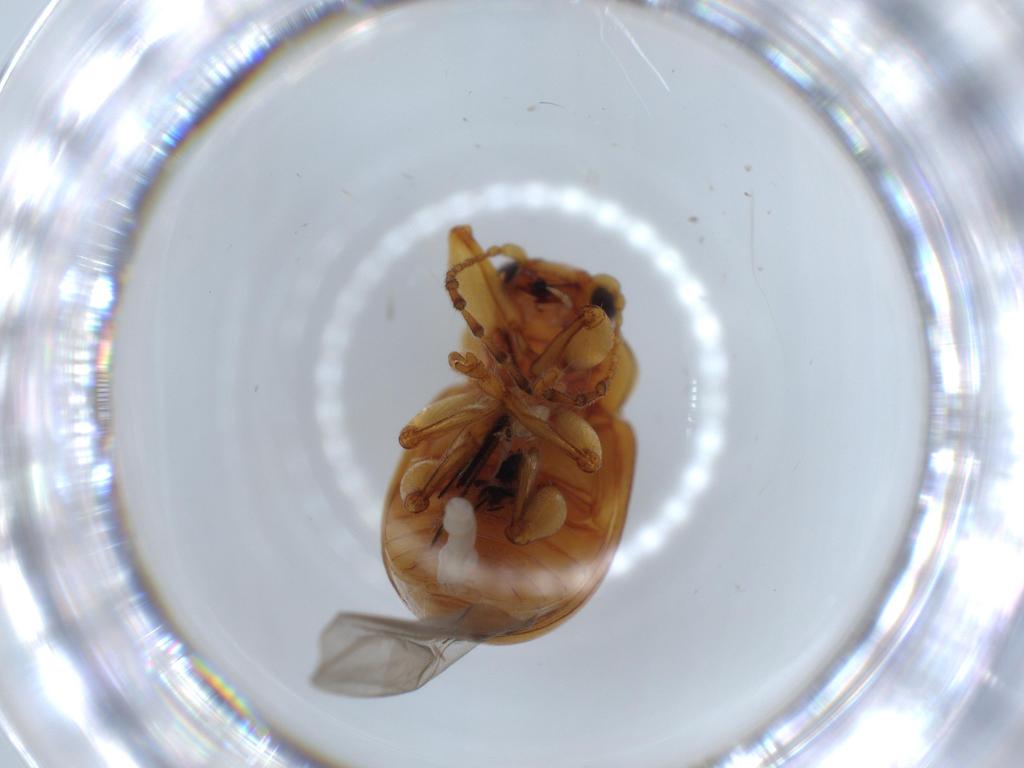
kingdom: Animalia
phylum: Arthropoda
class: Insecta
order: Coleoptera
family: Chrysomelidae
